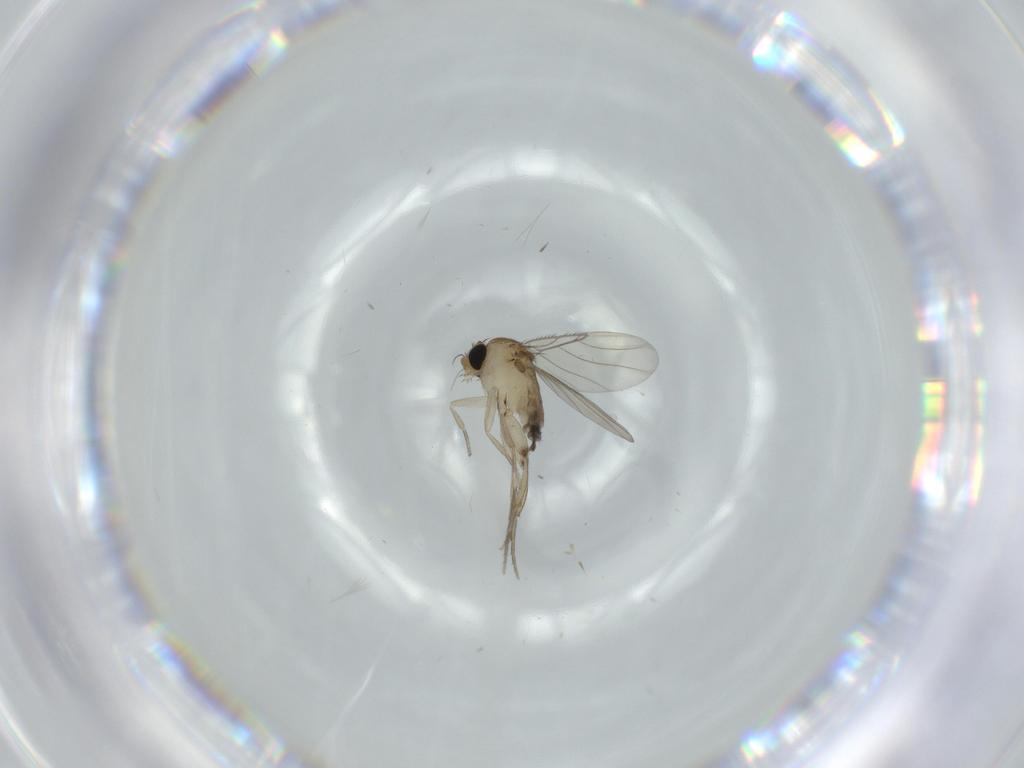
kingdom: Animalia
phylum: Arthropoda
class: Insecta
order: Diptera
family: Phoridae
